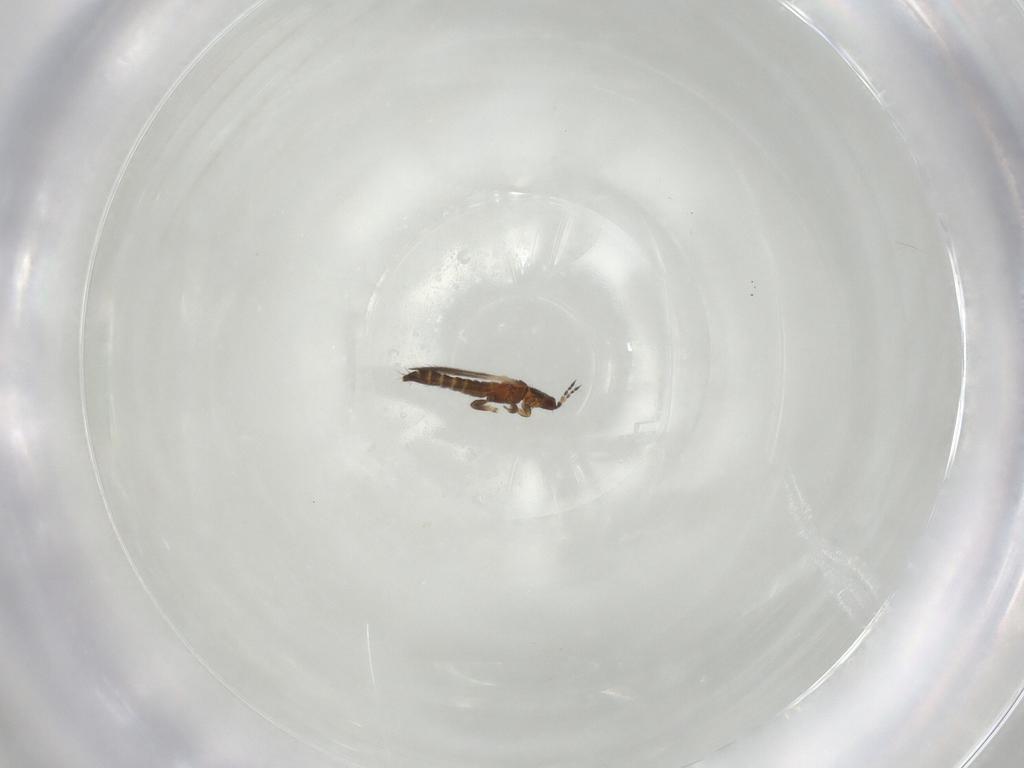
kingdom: Animalia
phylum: Arthropoda
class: Insecta
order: Thysanoptera
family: Thripidae
